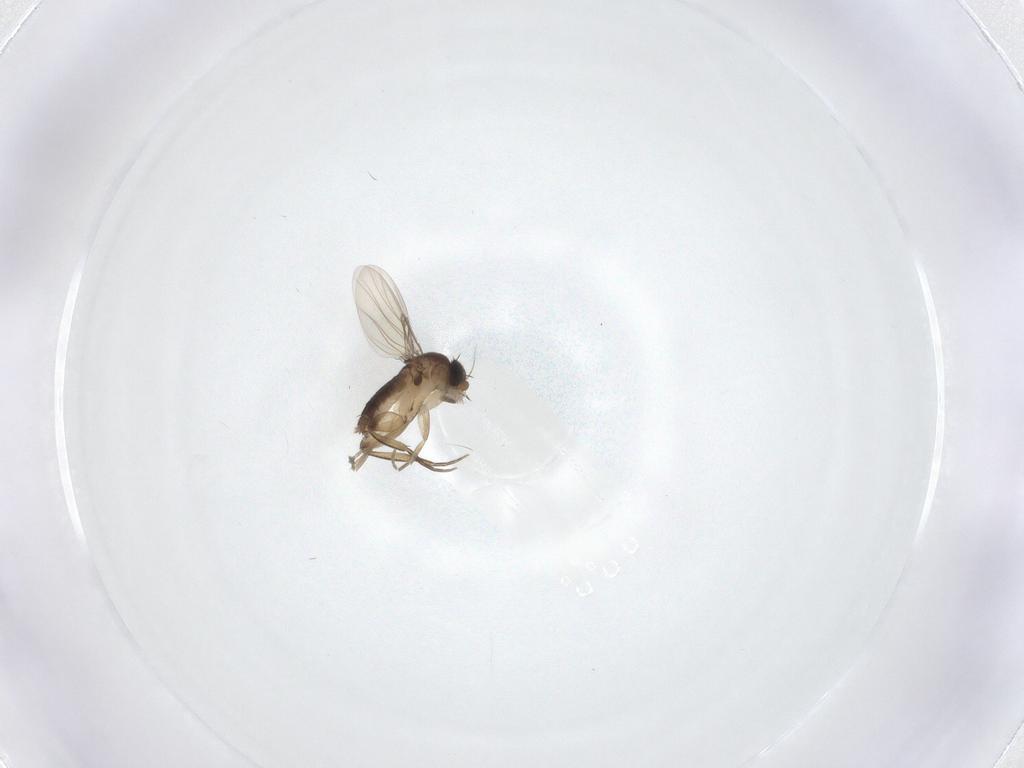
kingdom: Animalia
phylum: Arthropoda
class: Insecta
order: Diptera
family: Phoridae
